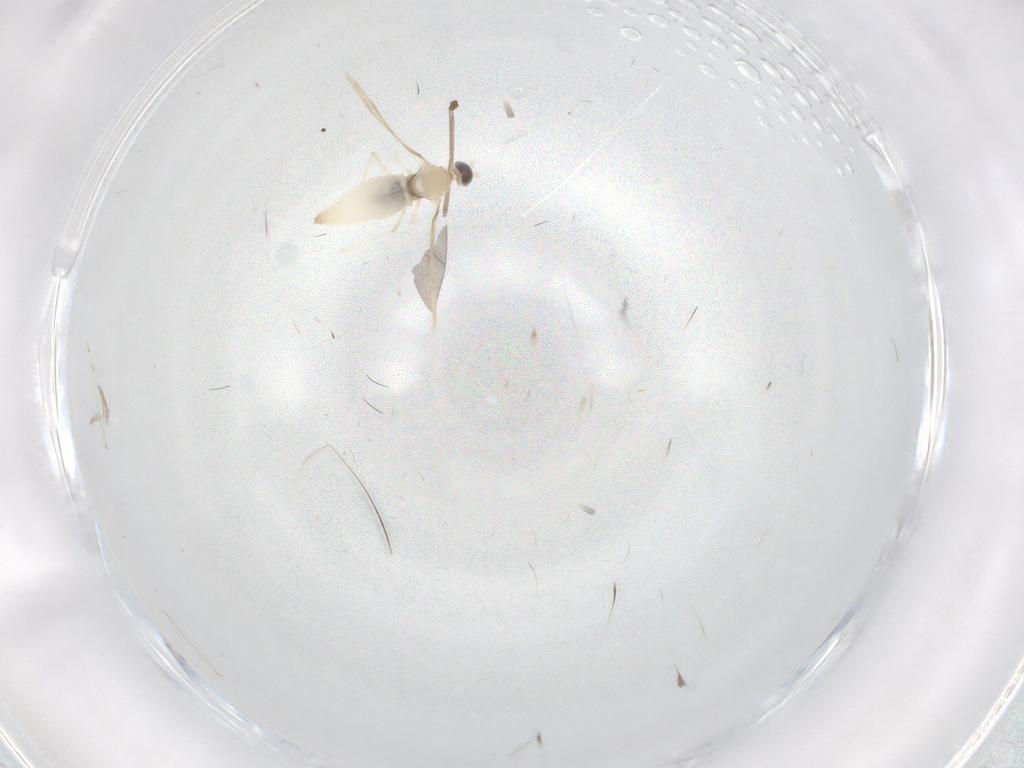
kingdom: Animalia
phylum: Arthropoda
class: Insecta
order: Diptera
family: Cecidomyiidae
